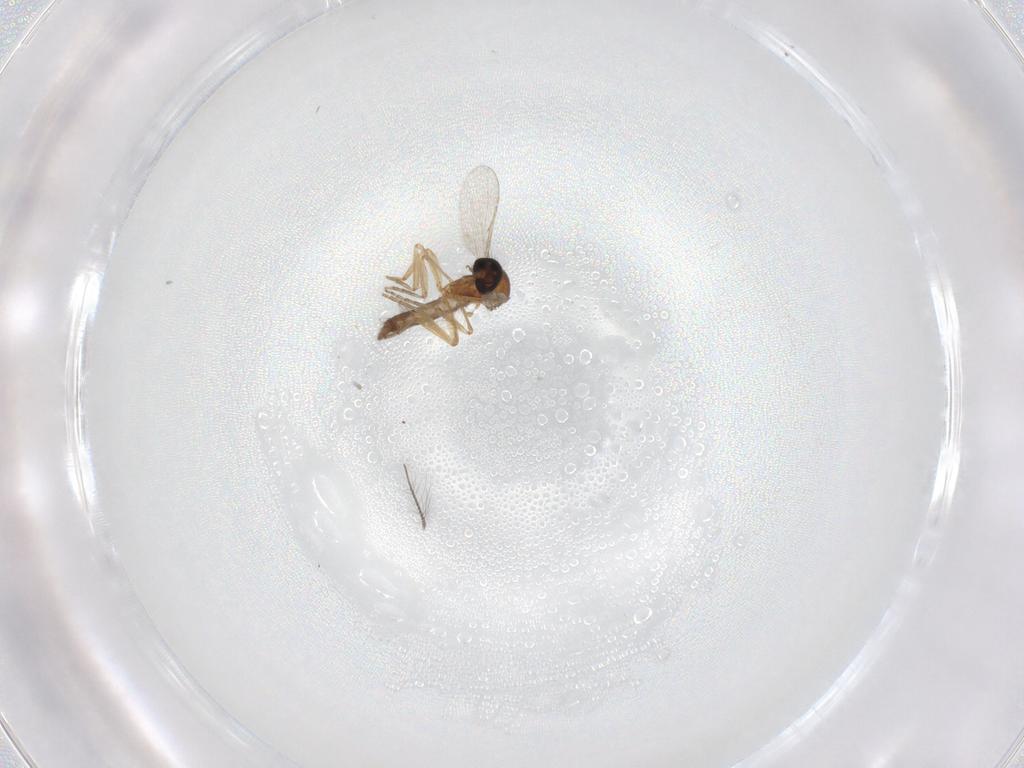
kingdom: Animalia
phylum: Arthropoda
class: Insecta
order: Diptera
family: Ceratopogonidae
